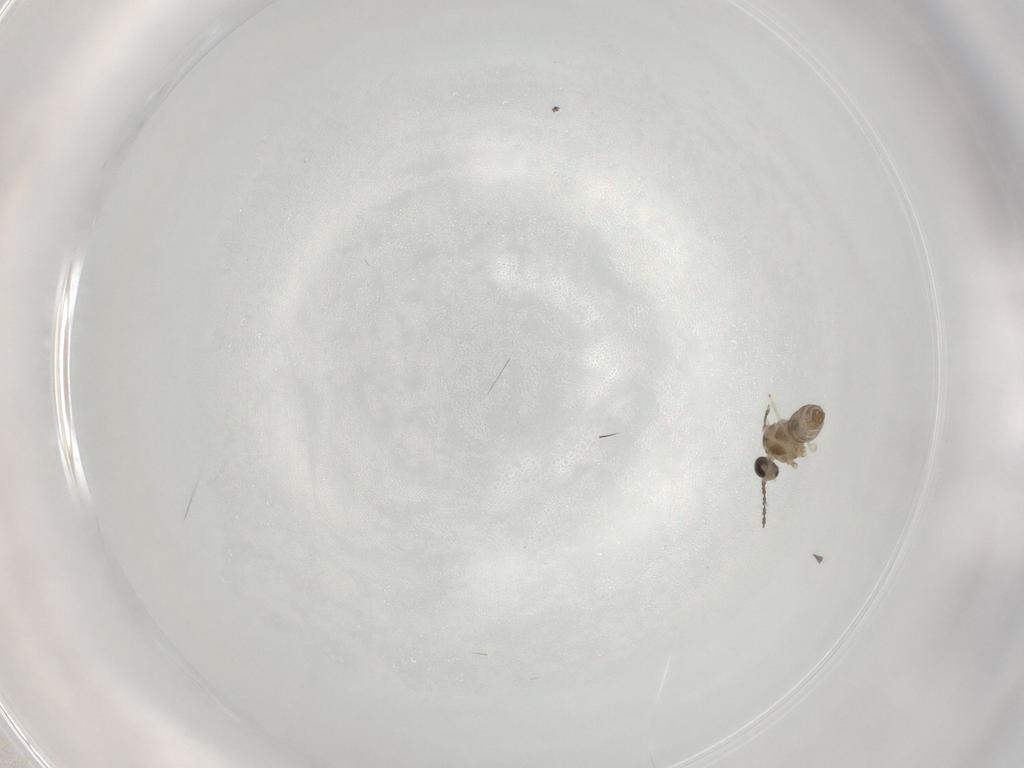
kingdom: Animalia
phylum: Arthropoda
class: Insecta
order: Diptera
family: Cecidomyiidae
